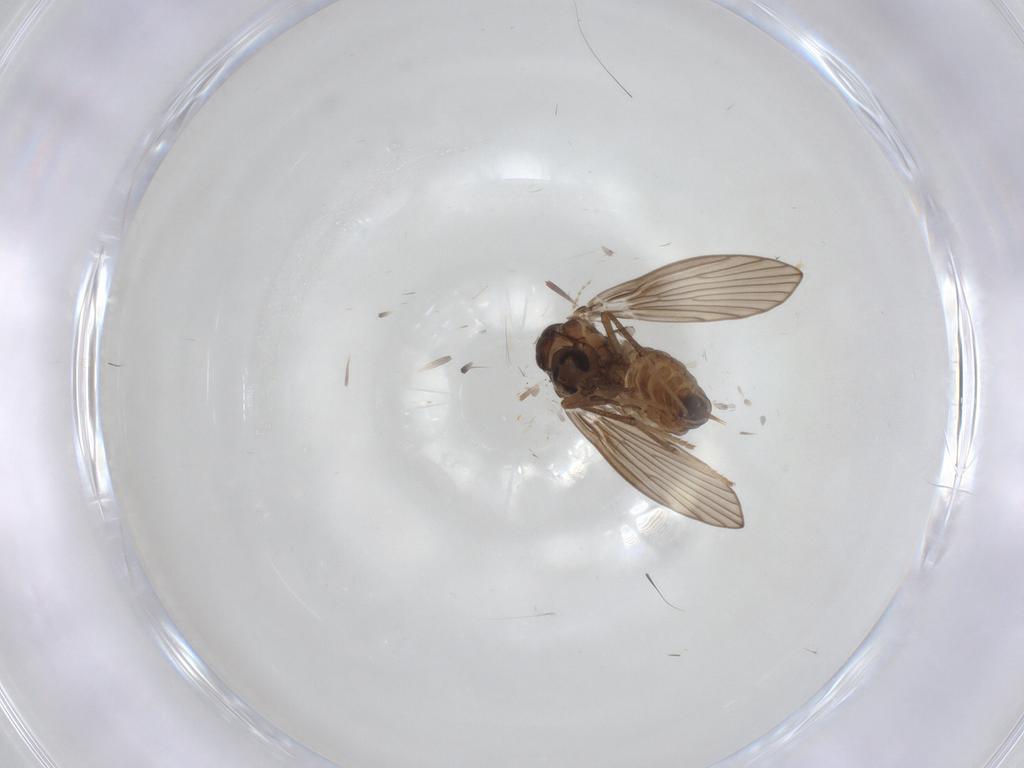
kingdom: Animalia
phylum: Arthropoda
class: Insecta
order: Diptera
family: Psychodidae
